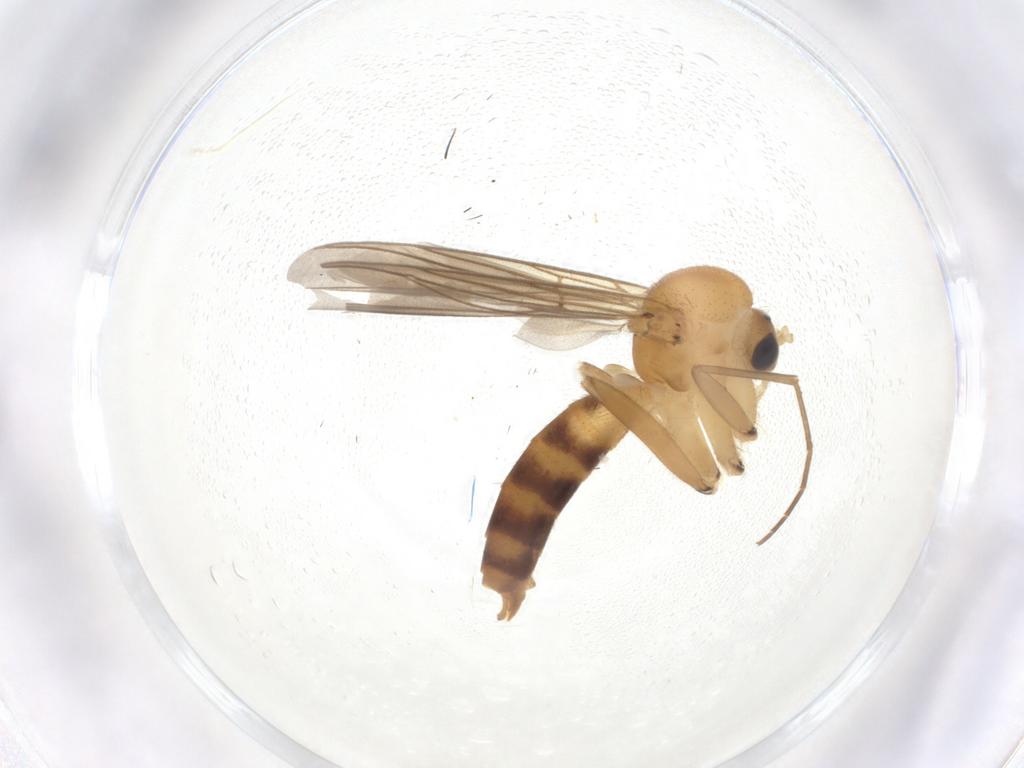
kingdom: Animalia
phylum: Arthropoda
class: Insecta
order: Diptera
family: Mycetophilidae
